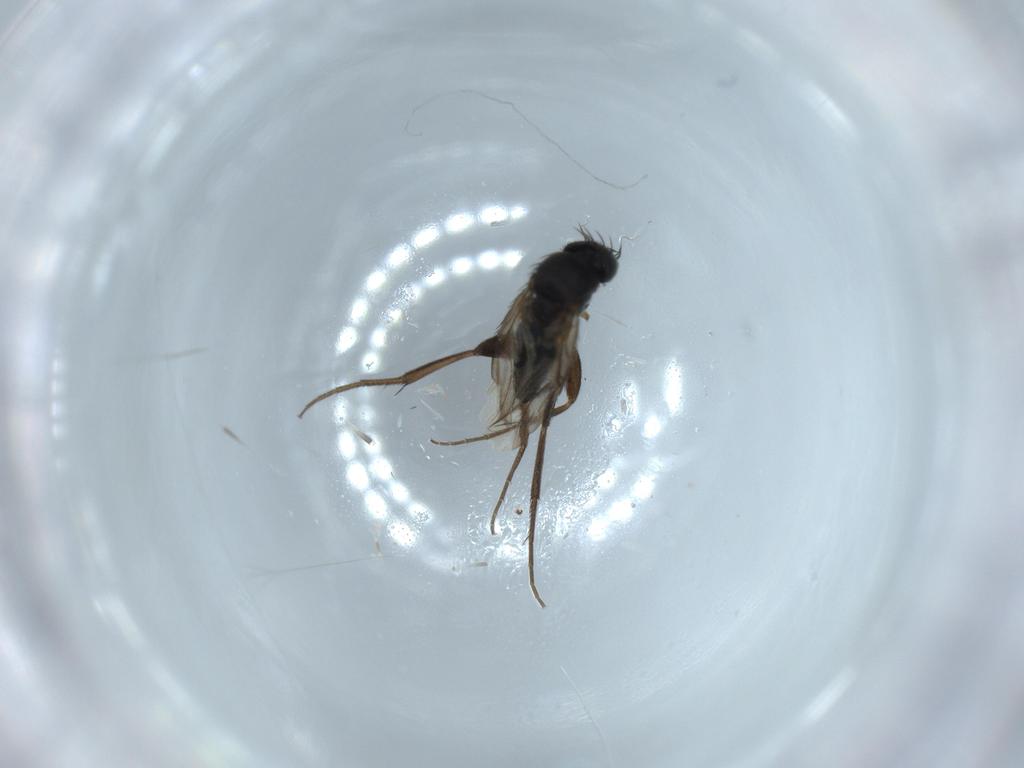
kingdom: Animalia
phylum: Arthropoda
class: Insecta
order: Diptera
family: Phoridae
